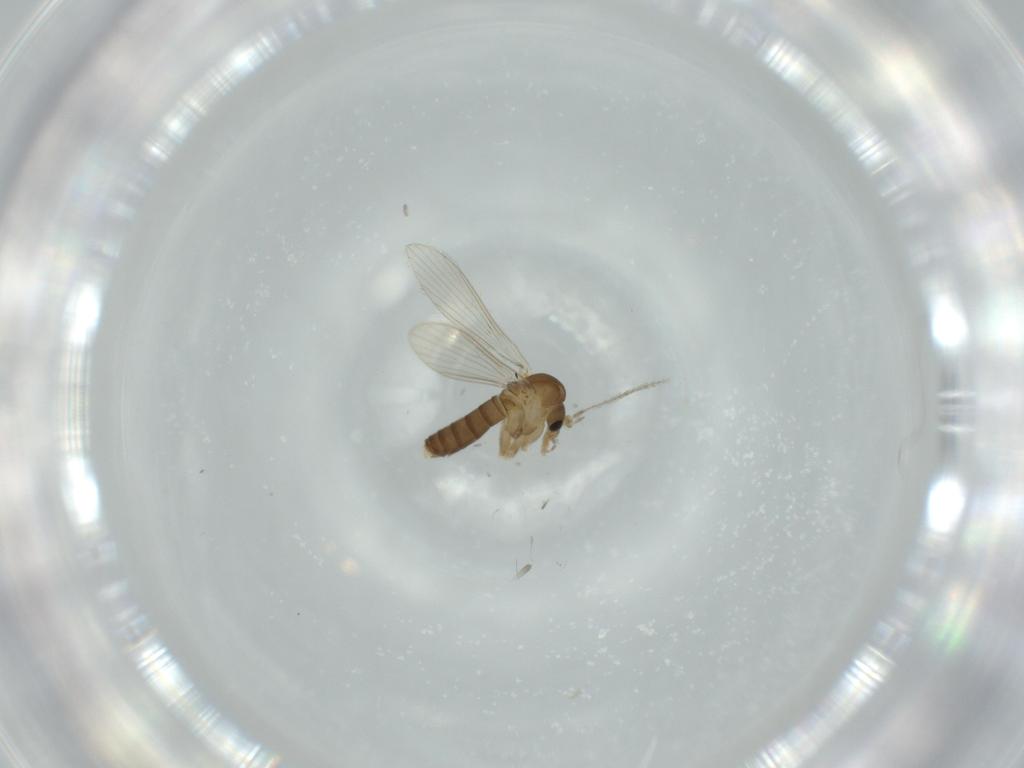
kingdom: Animalia
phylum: Arthropoda
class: Insecta
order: Diptera
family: Psychodidae
